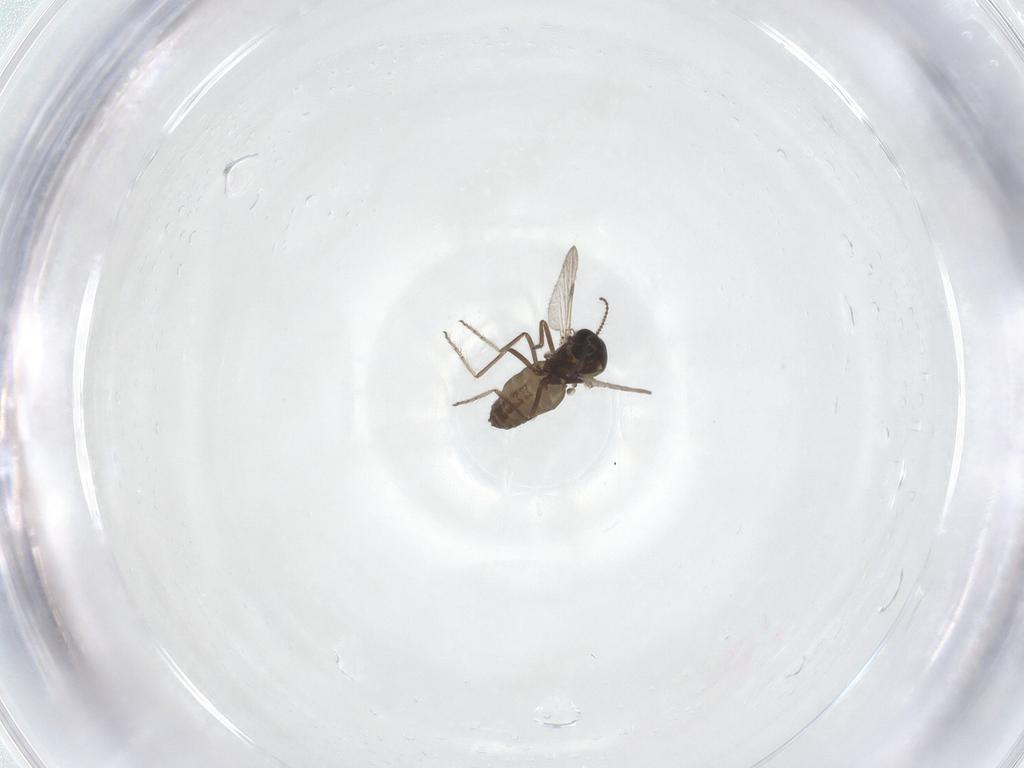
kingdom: Animalia
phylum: Arthropoda
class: Insecta
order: Diptera
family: Ceratopogonidae
